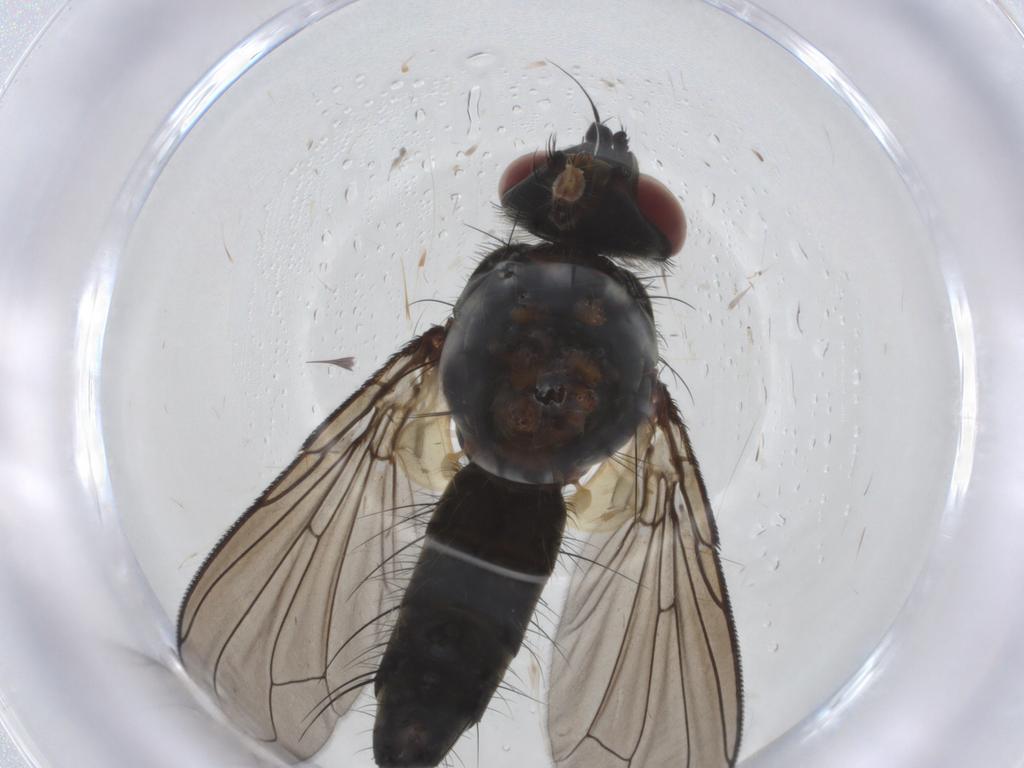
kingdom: Animalia
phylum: Arthropoda
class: Insecta
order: Diptera
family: Tachinidae
